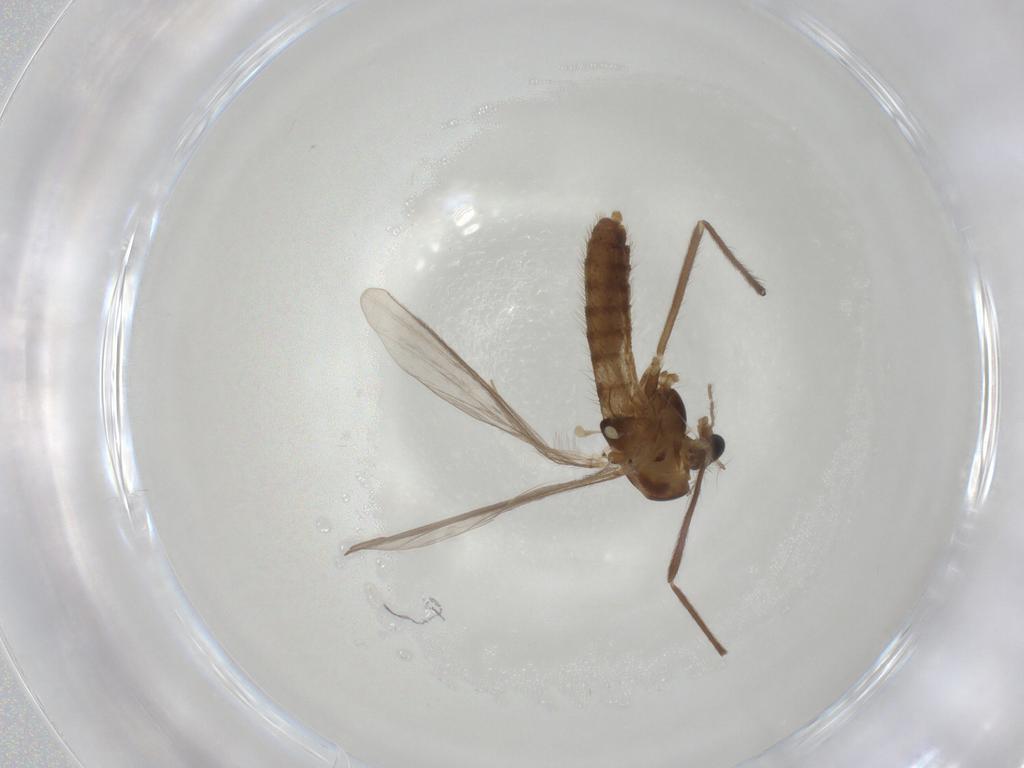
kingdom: Animalia
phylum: Arthropoda
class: Insecta
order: Diptera
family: Chironomidae
